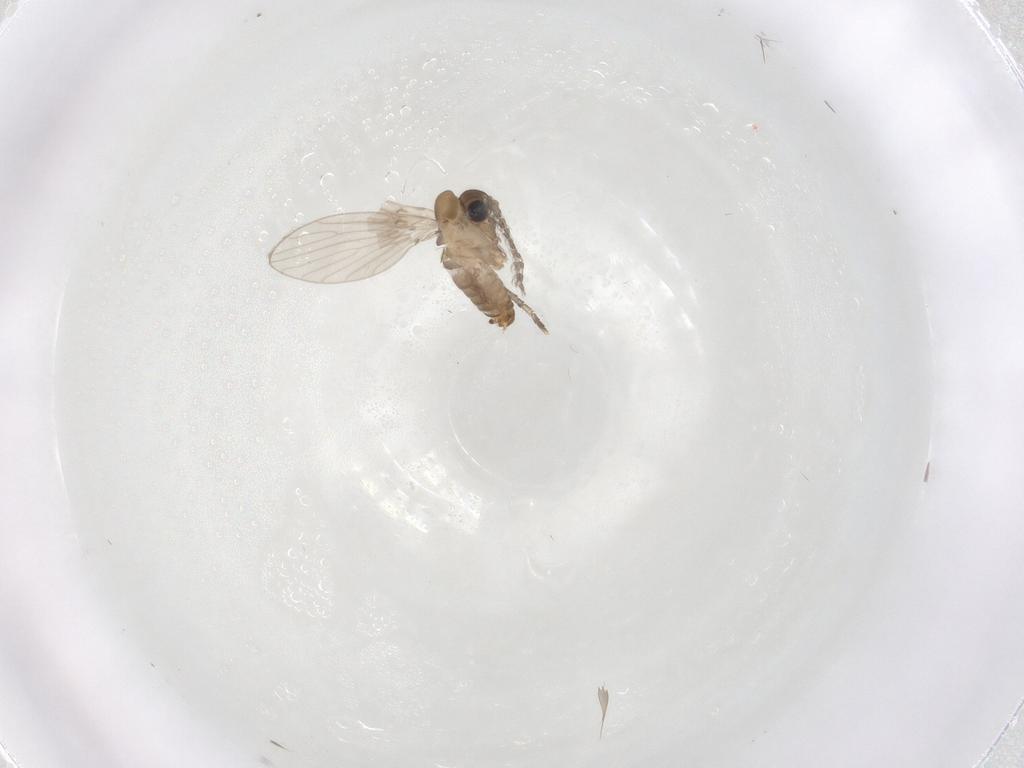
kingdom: Animalia
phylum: Arthropoda
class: Insecta
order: Diptera
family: Psychodidae
